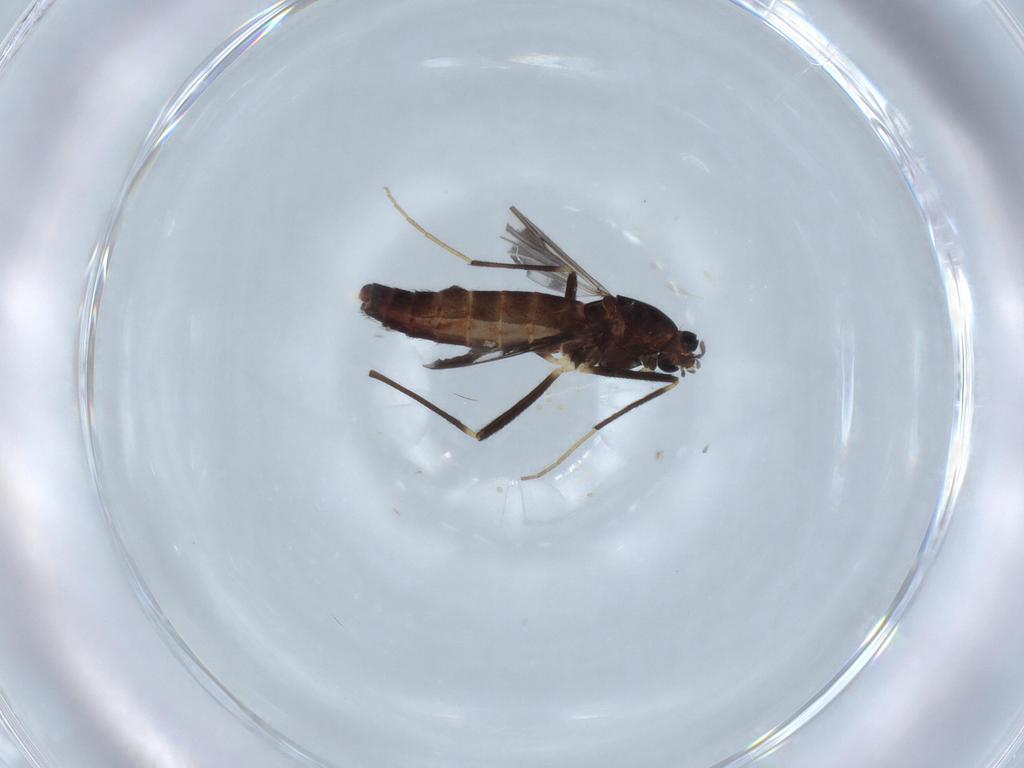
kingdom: Animalia
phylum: Arthropoda
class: Insecta
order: Diptera
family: Chironomidae
